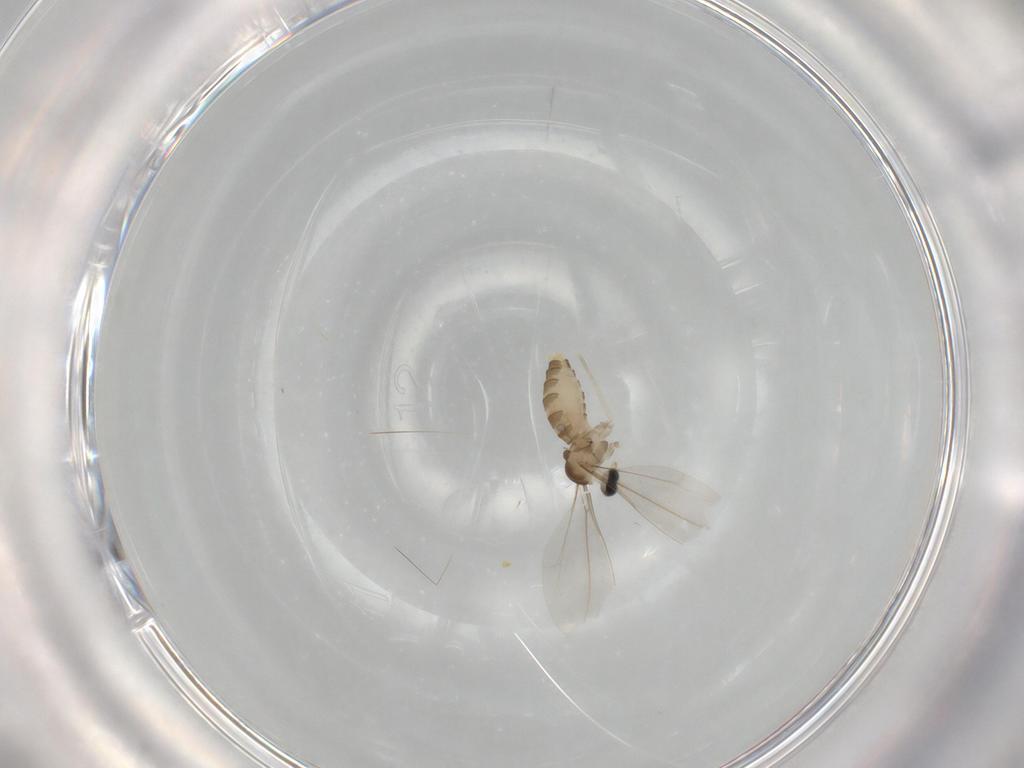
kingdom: Animalia
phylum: Arthropoda
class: Insecta
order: Diptera
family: Cecidomyiidae
